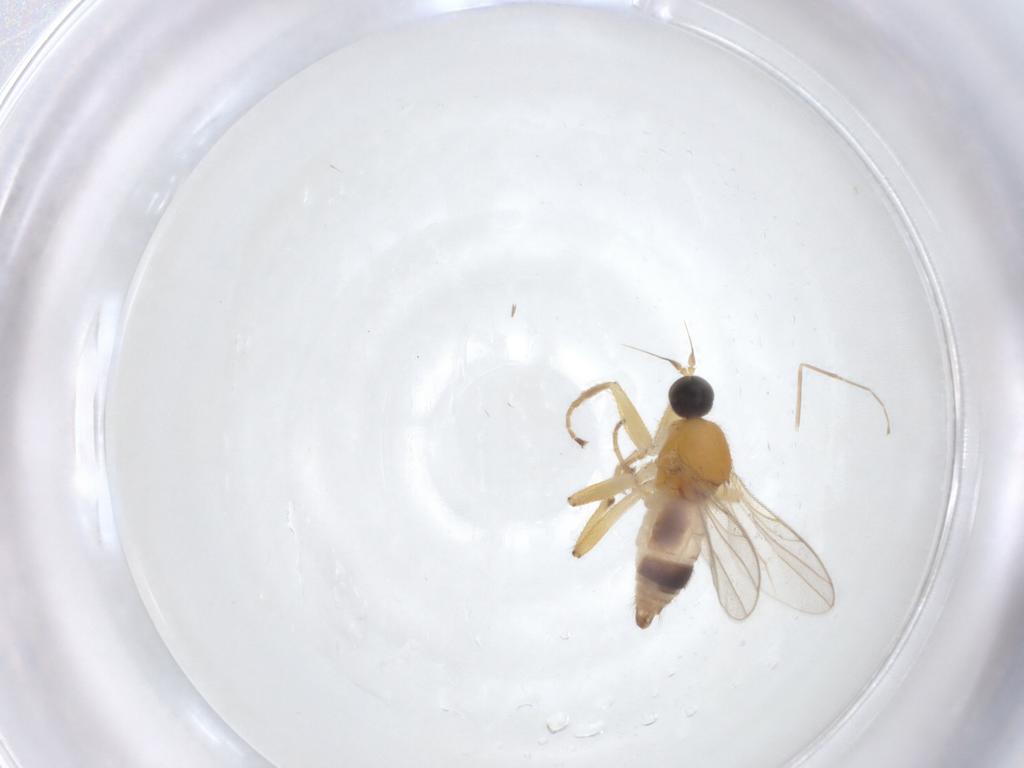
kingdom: Animalia
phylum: Arthropoda
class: Insecta
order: Diptera
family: Hybotidae
